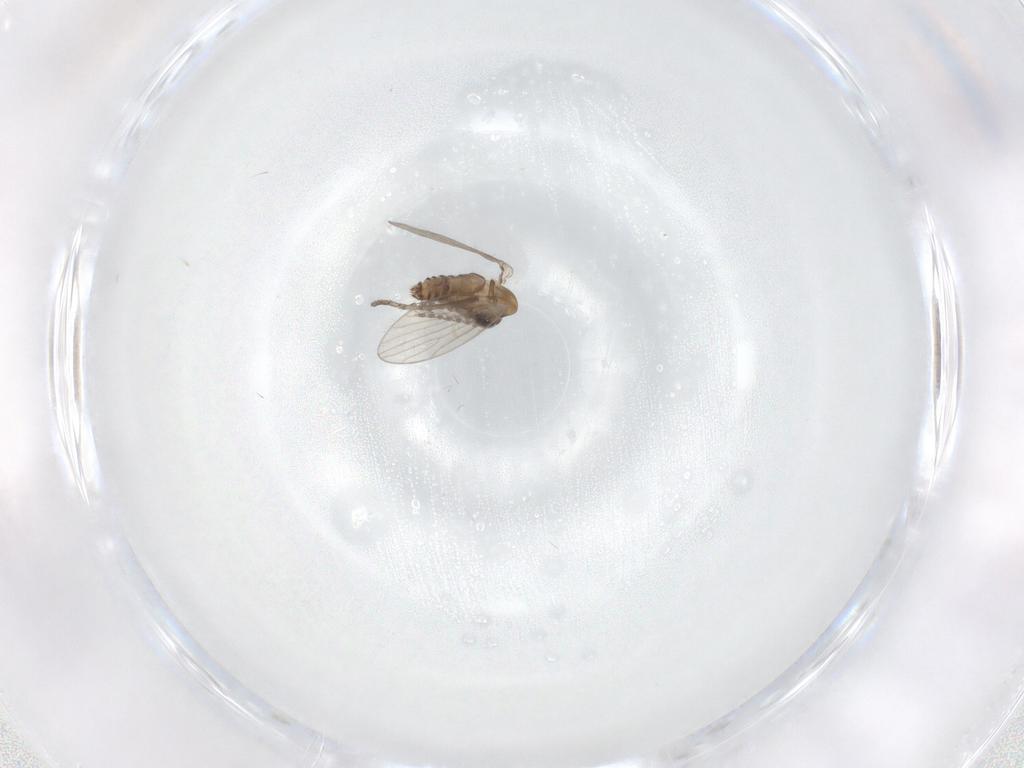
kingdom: Animalia
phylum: Arthropoda
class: Insecta
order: Diptera
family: Cecidomyiidae
